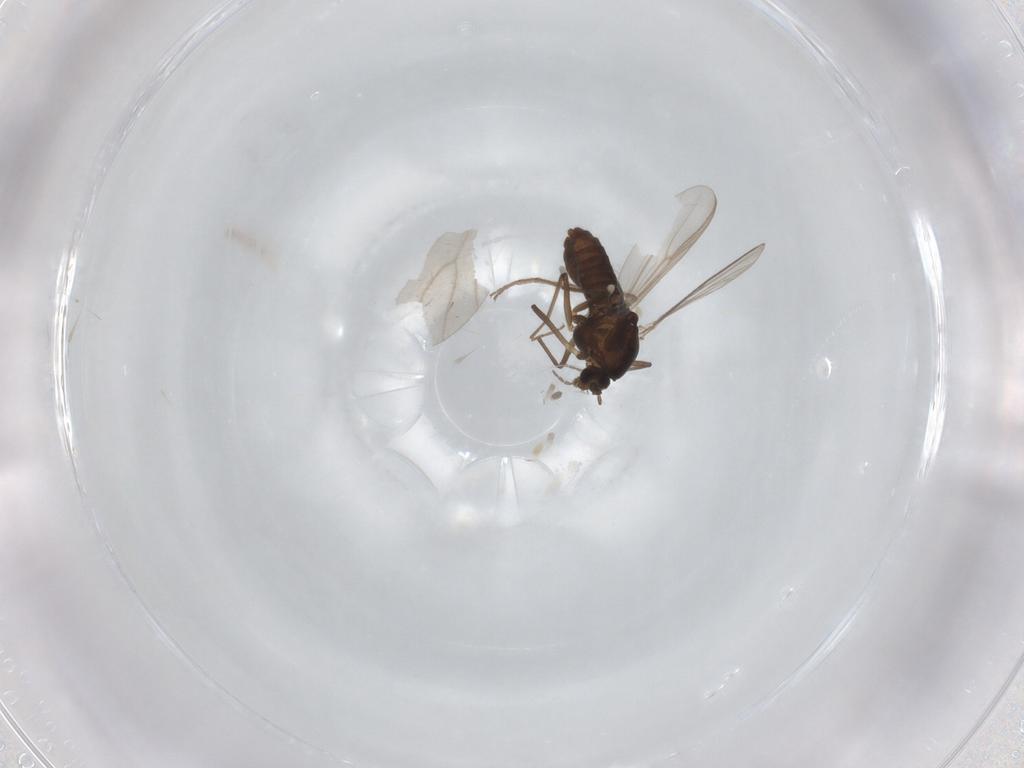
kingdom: Animalia
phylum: Arthropoda
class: Insecta
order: Diptera
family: Chironomidae
